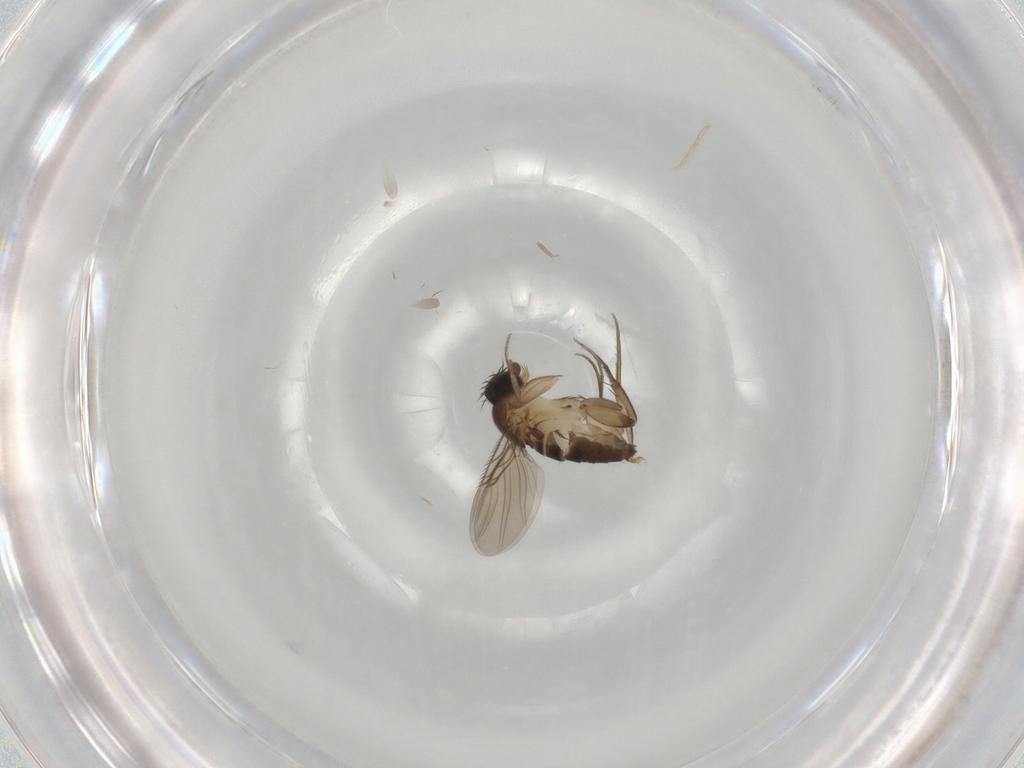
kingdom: Animalia
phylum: Arthropoda
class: Insecta
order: Diptera
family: Phoridae
